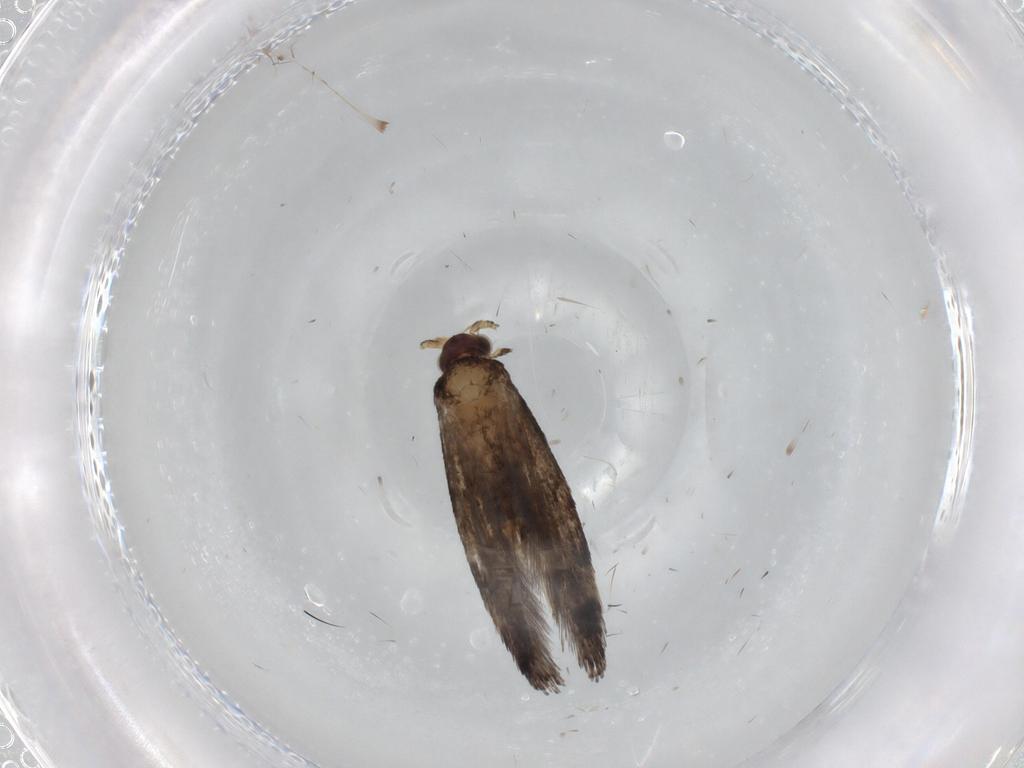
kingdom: Animalia
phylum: Arthropoda
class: Insecta
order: Lepidoptera
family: Tineidae
